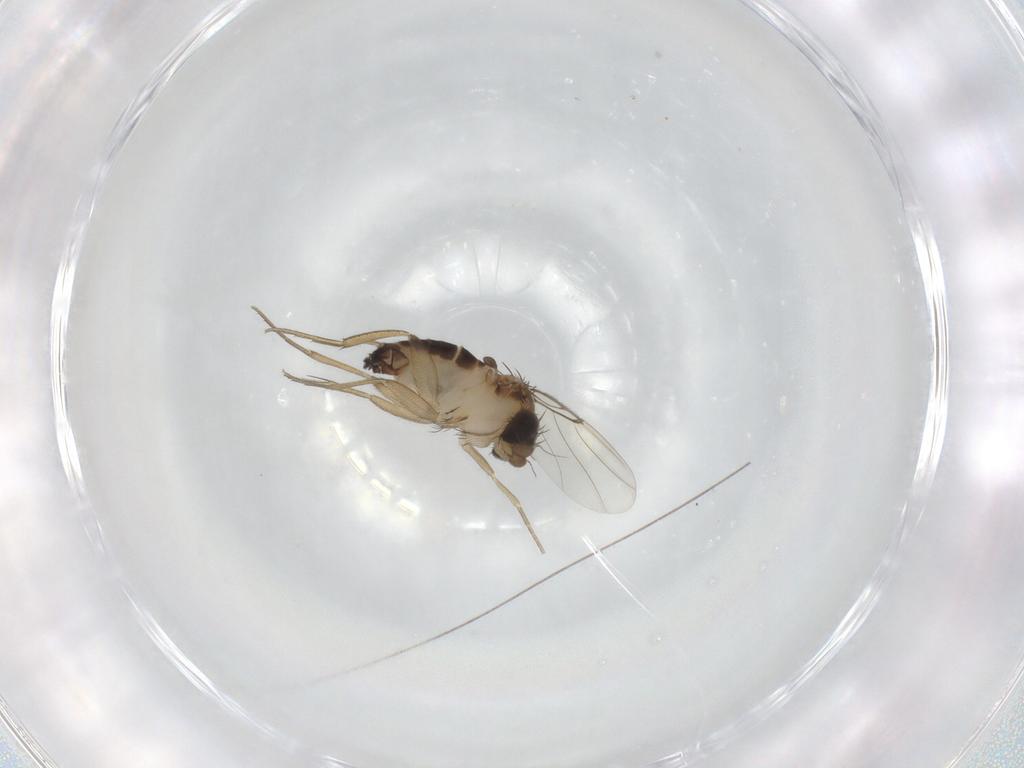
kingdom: Animalia
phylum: Arthropoda
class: Insecta
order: Diptera
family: Phoridae
